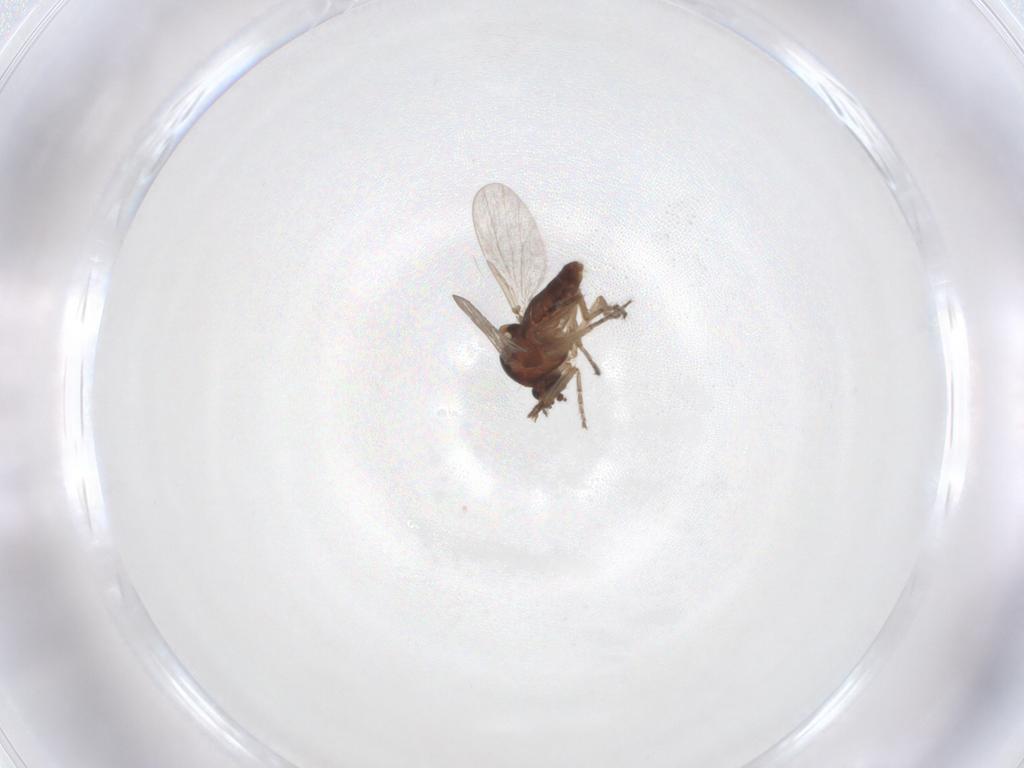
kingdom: Animalia
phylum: Arthropoda
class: Insecta
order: Diptera
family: Ceratopogonidae
